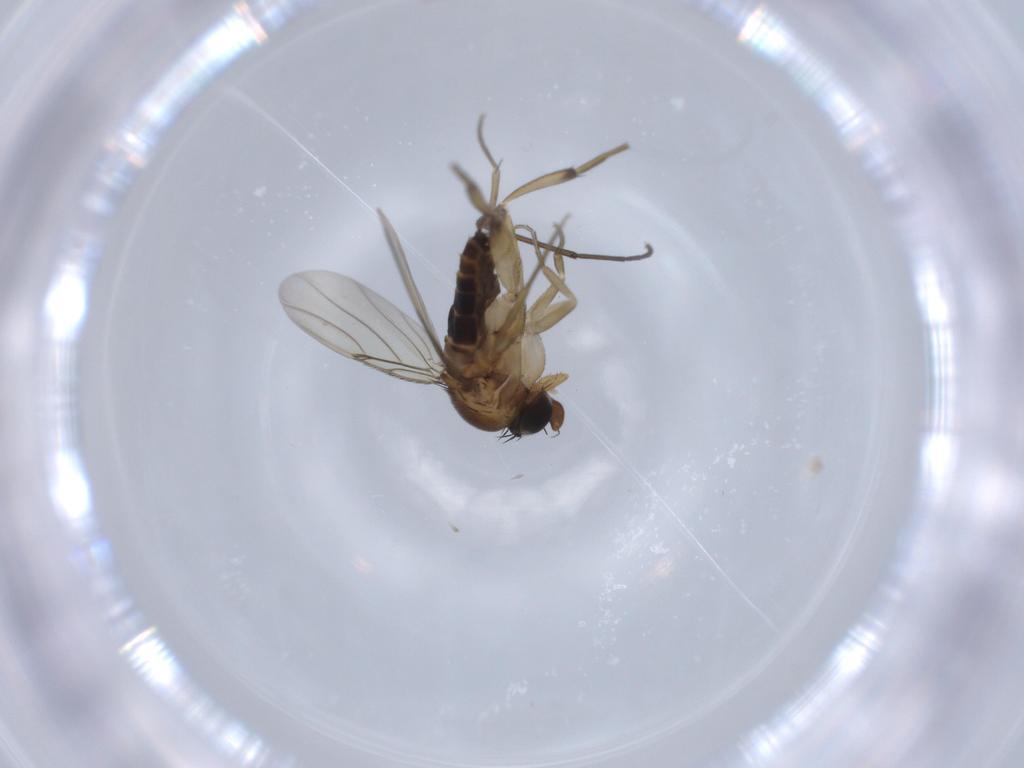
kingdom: Animalia
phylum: Arthropoda
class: Insecta
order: Diptera
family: Phoridae
